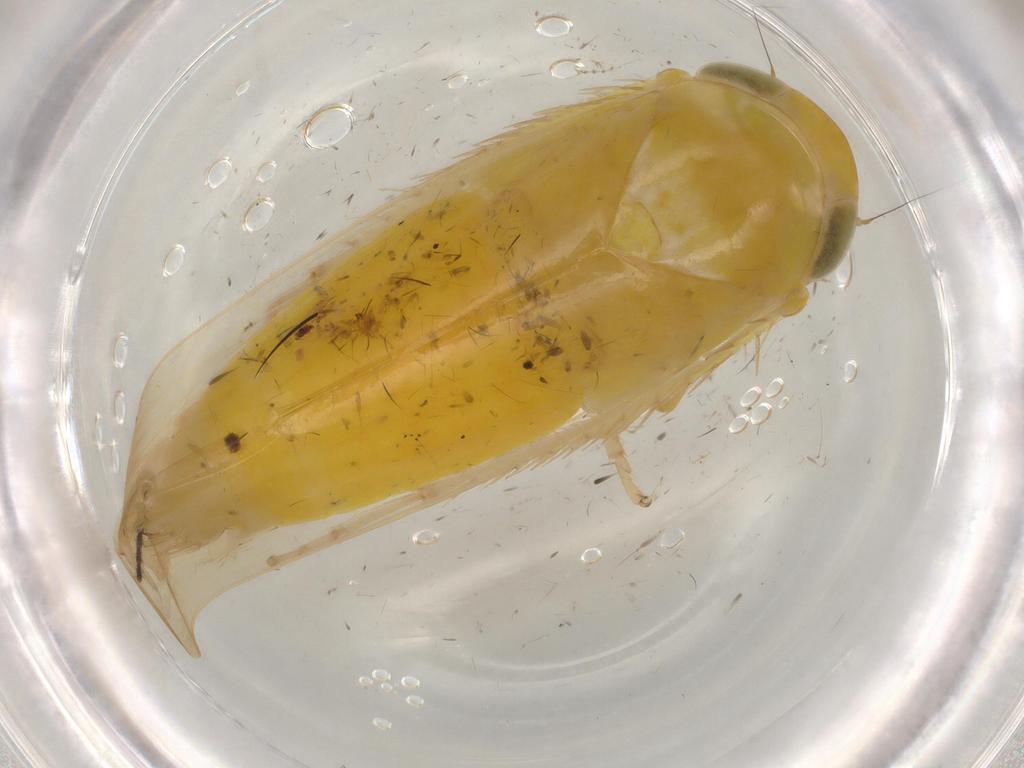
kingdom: Animalia
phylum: Arthropoda
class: Insecta
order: Hemiptera
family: Cicadellidae
